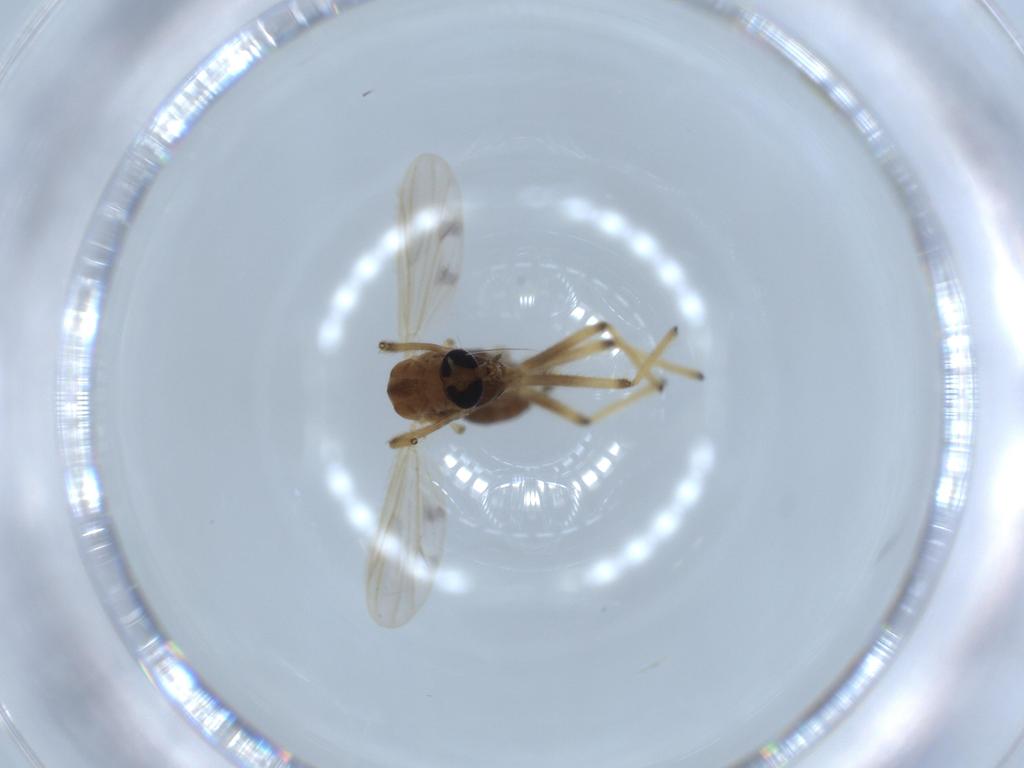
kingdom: Animalia
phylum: Arthropoda
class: Insecta
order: Diptera
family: Chironomidae
